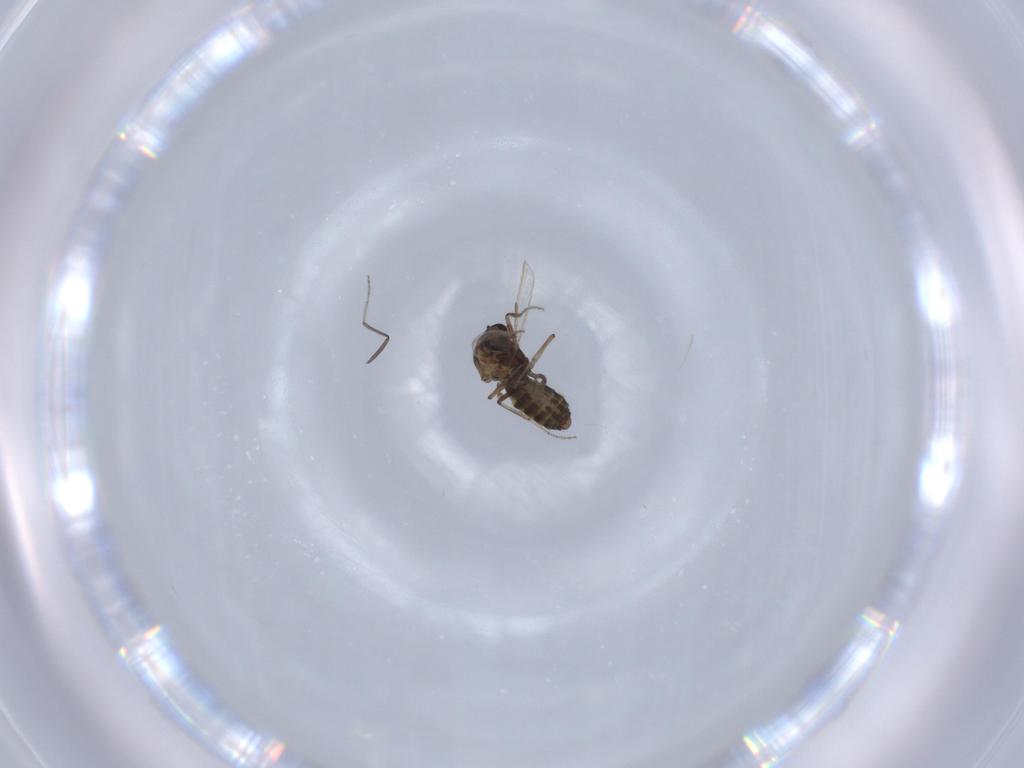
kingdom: Animalia
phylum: Arthropoda
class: Insecta
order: Diptera
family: Ceratopogonidae
